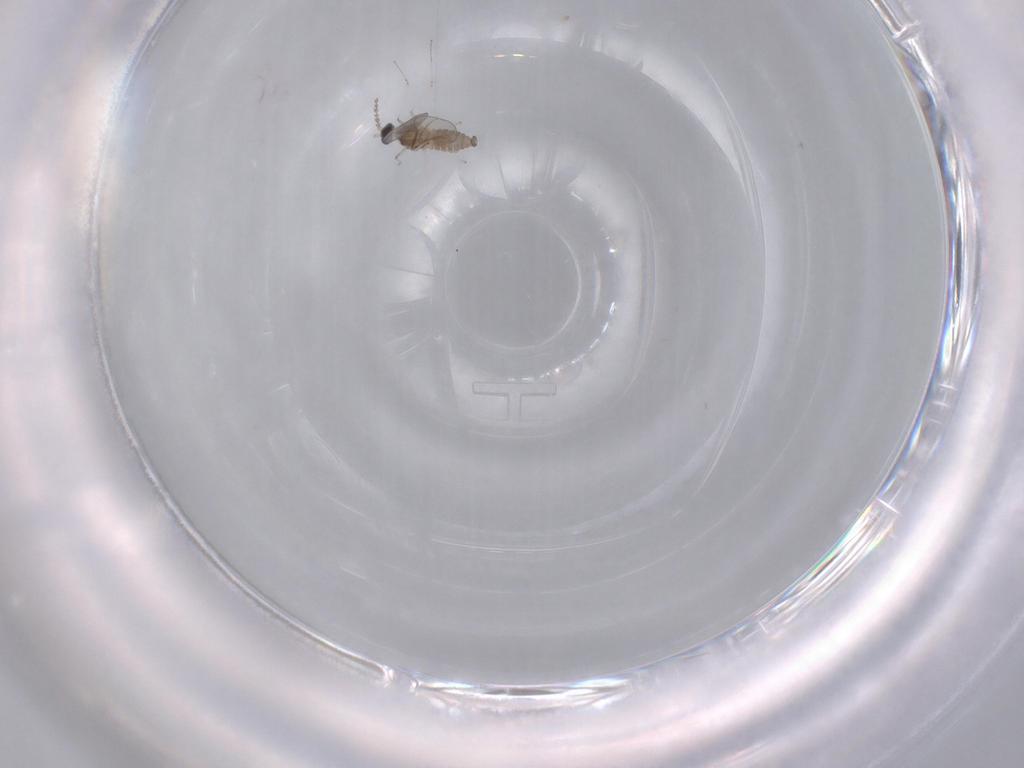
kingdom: Animalia
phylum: Arthropoda
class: Insecta
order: Diptera
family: Cecidomyiidae
